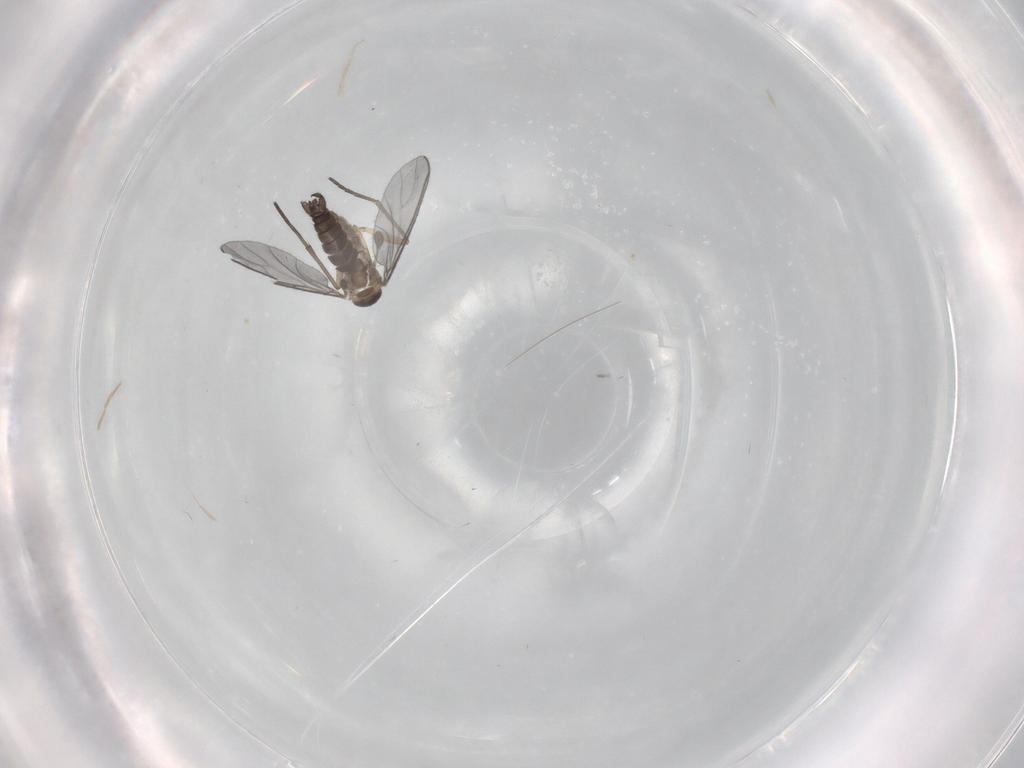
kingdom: Animalia
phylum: Arthropoda
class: Insecta
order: Diptera
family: Sciaridae
